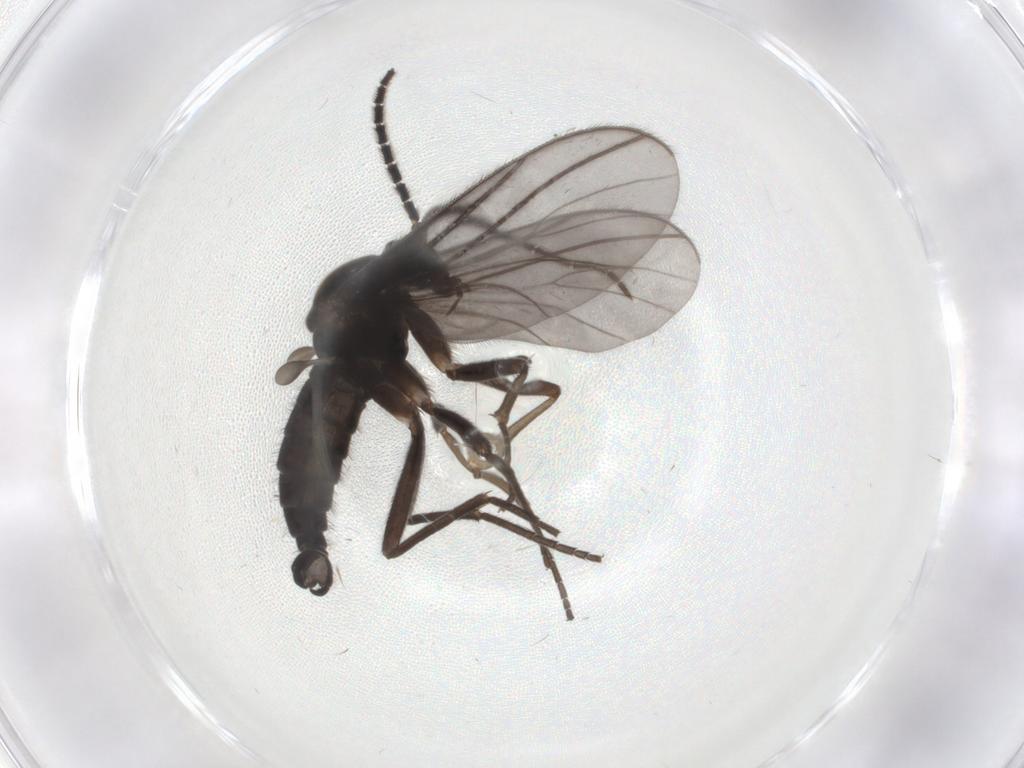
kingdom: Animalia
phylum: Arthropoda
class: Insecta
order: Diptera
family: Sciaridae
